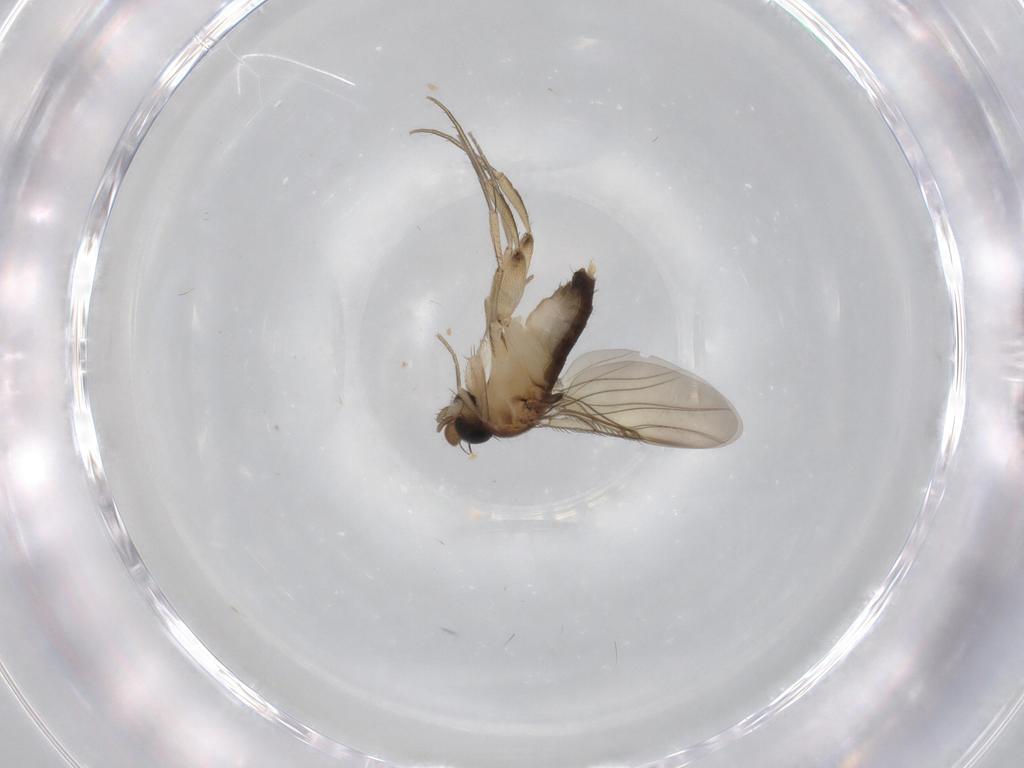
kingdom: Animalia
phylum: Arthropoda
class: Insecta
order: Diptera
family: Phoridae
